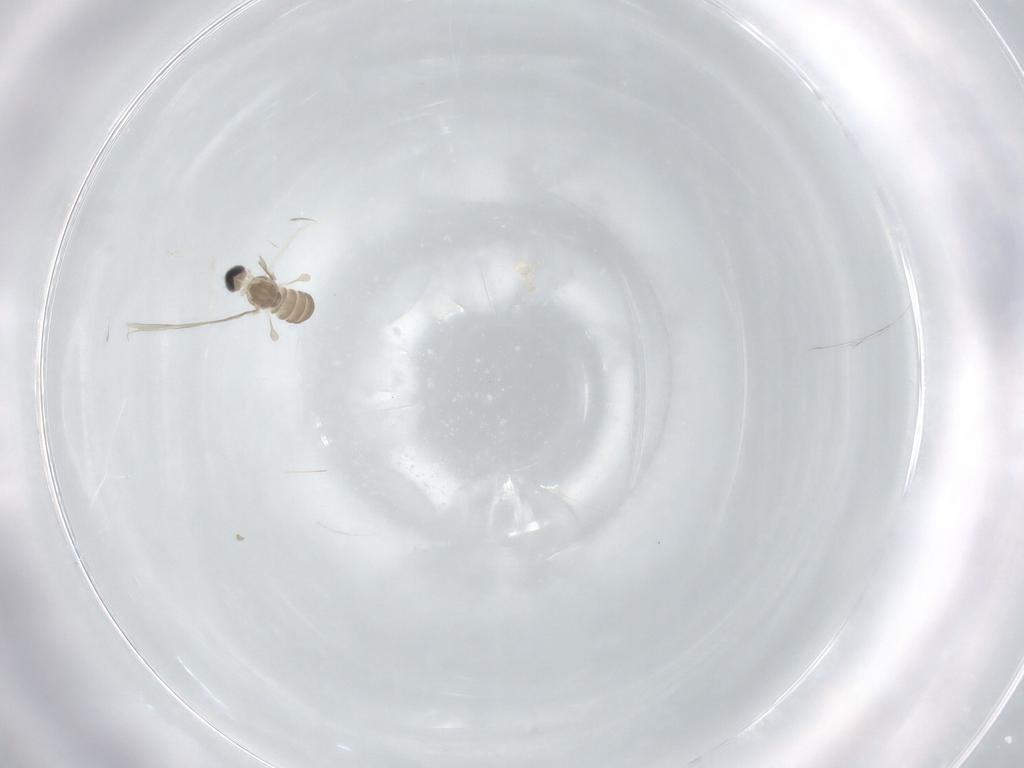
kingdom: Animalia
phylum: Arthropoda
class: Insecta
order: Diptera
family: Cecidomyiidae
